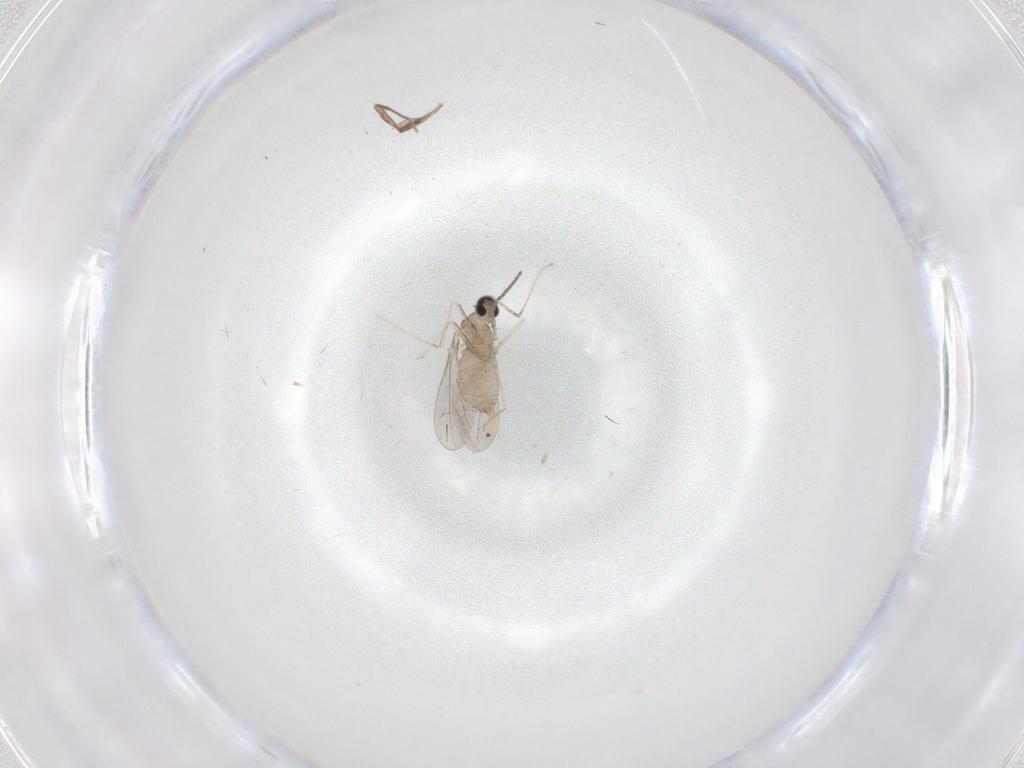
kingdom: Animalia
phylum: Arthropoda
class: Insecta
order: Diptera
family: Cecidomyiidae
